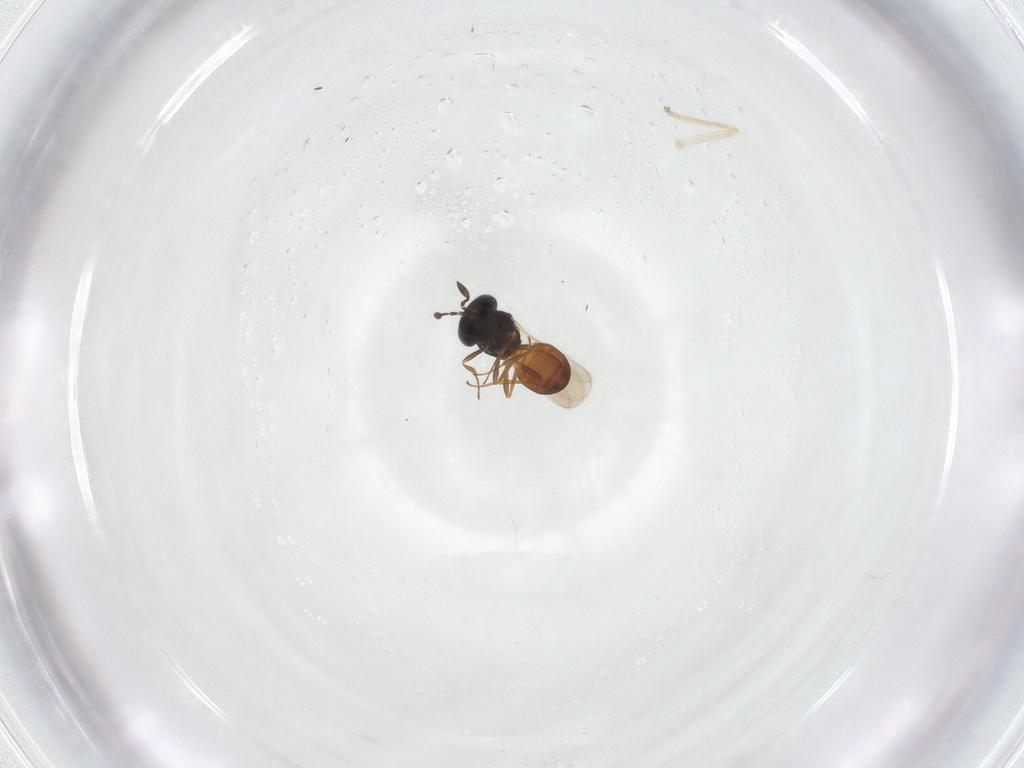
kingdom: Animalia
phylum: Arthropoda
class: Insecta
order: Hymenoptera
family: Scelionidae
